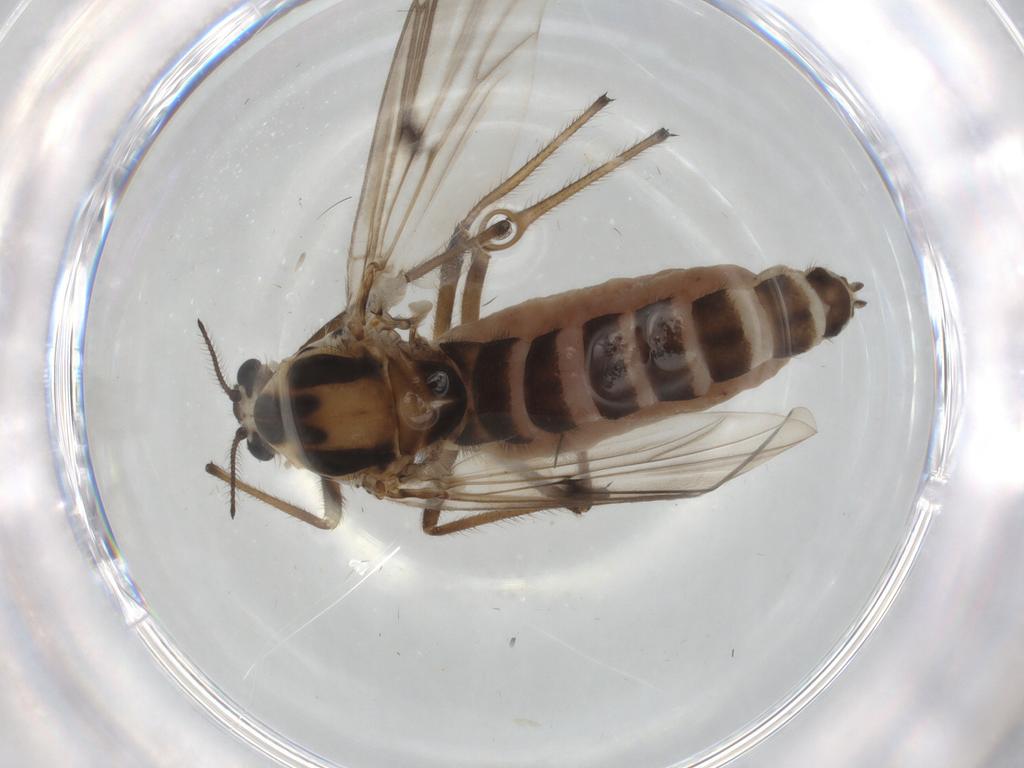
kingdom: Animalia
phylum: Arthropoda
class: Insecta
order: Diptera
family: Chironomidae
